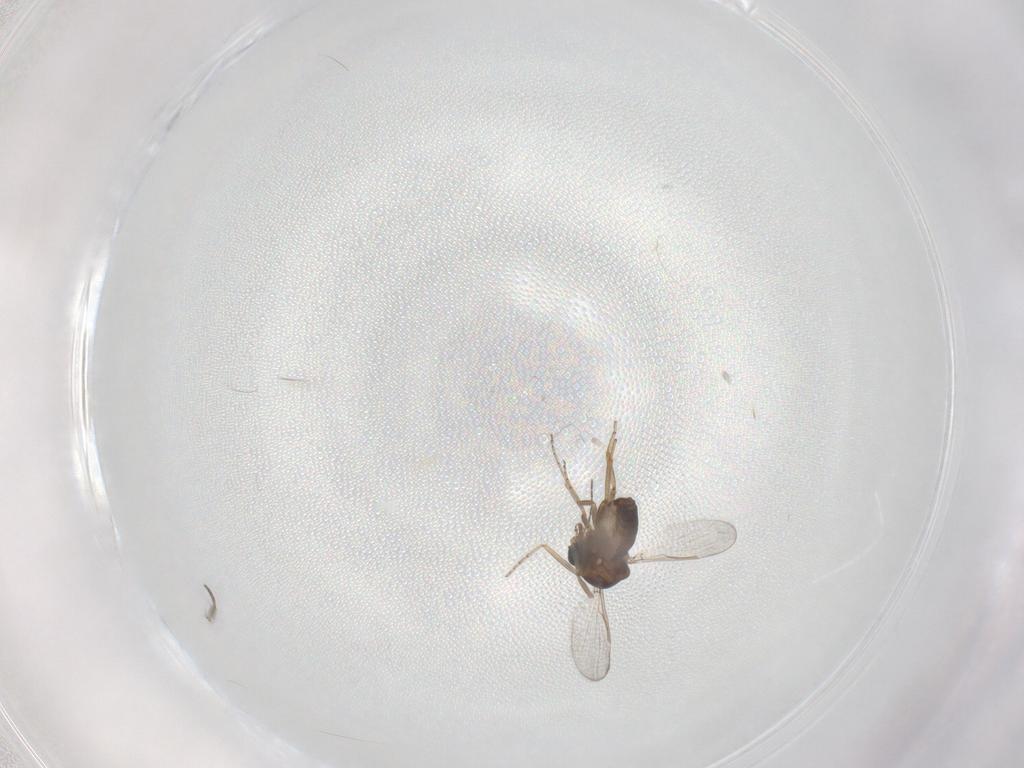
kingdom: Animalia
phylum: Arthropoda
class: Insecta
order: Diptera
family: Ceratopogonidae
